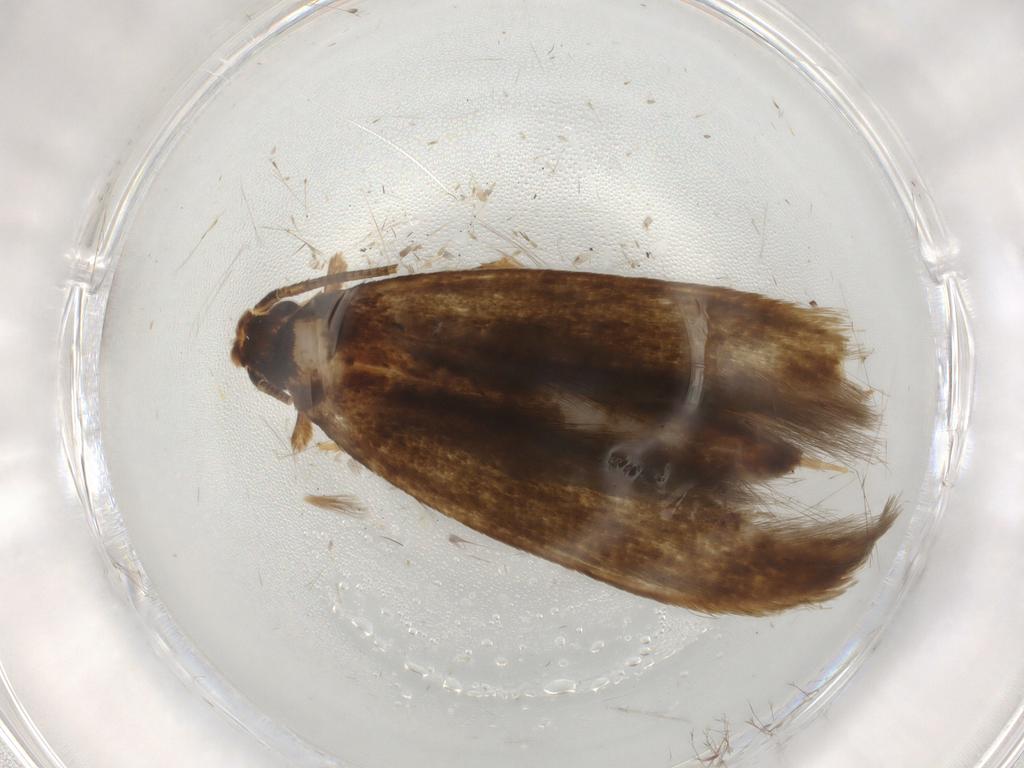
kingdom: Animalia
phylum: Arthropoda
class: Insecta
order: Lepidoptera
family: Tineidae
